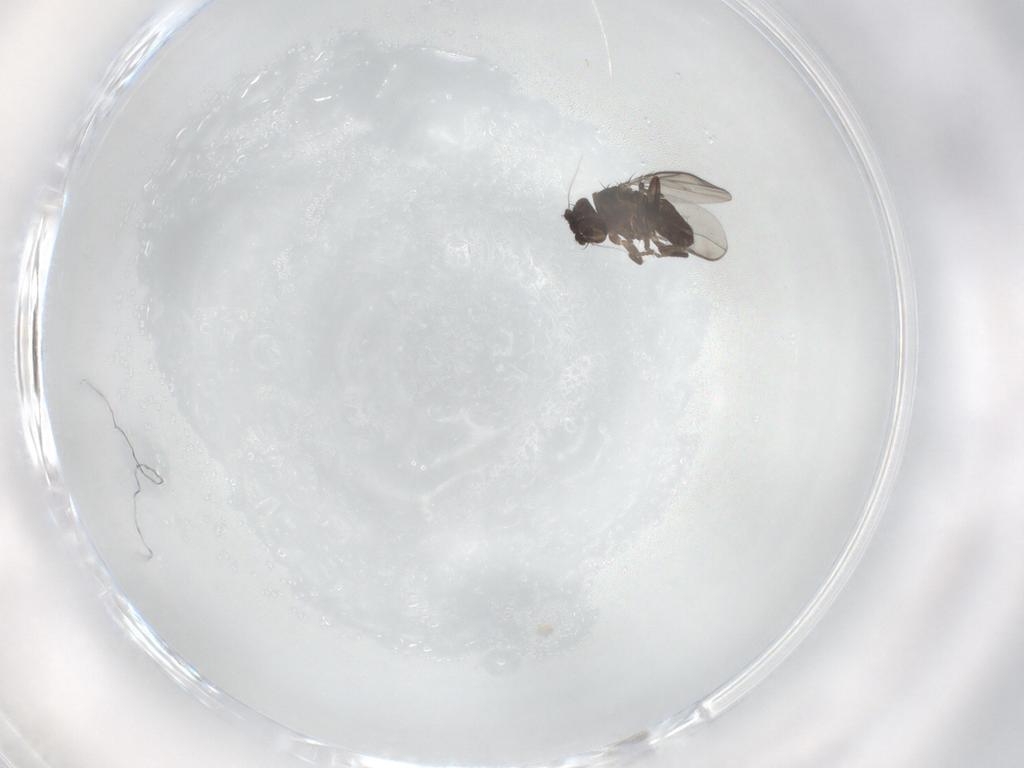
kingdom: Animalia
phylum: Arthropoda
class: Insecta
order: Diptera
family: Sphaeroceridae
